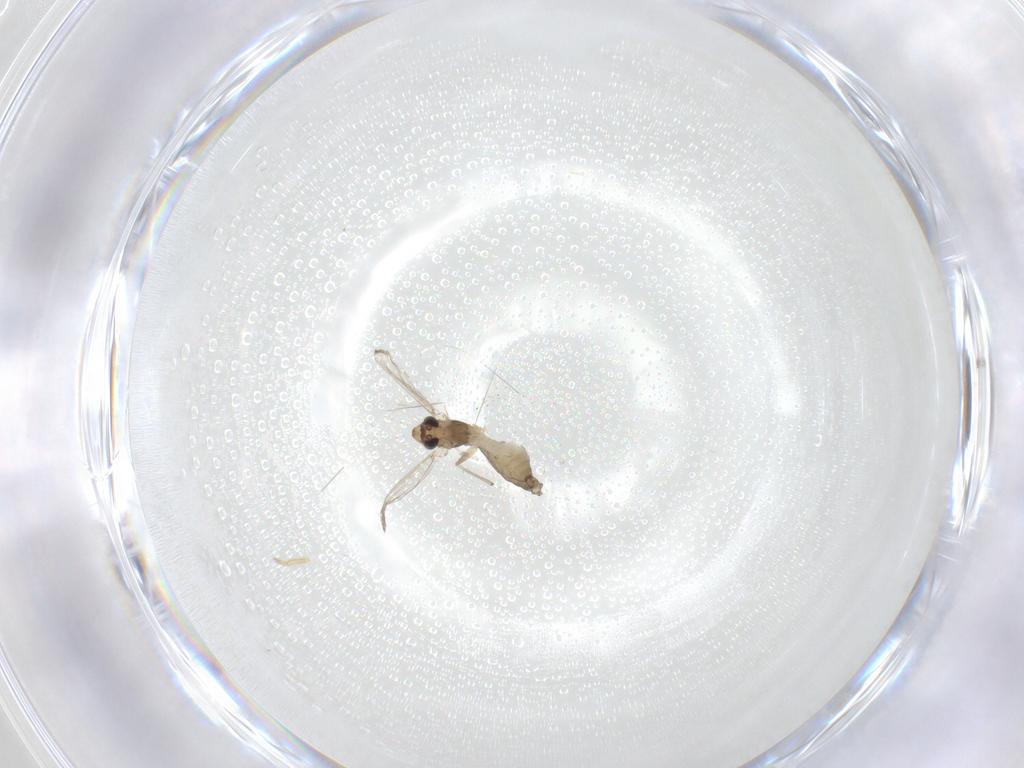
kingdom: Animalia
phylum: Arthropoda
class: Insecta
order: Diptera
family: Chironomidae
